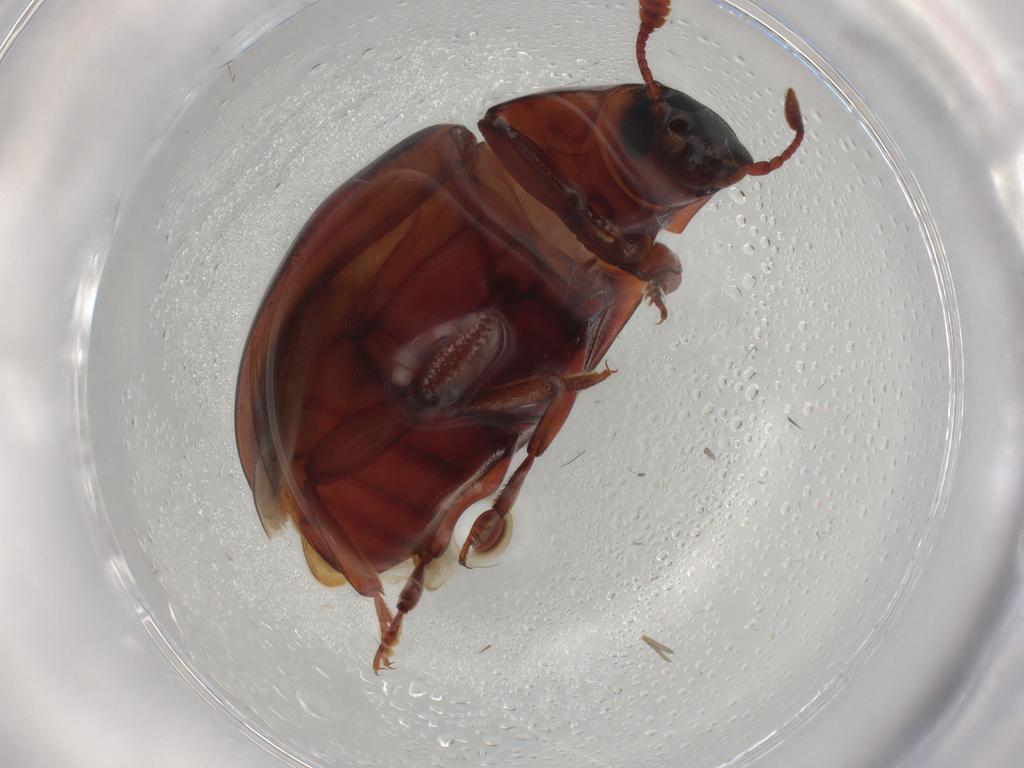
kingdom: Animalia
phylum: Arthropoda
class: Insecta
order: Coleoptera
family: Zopheridae
